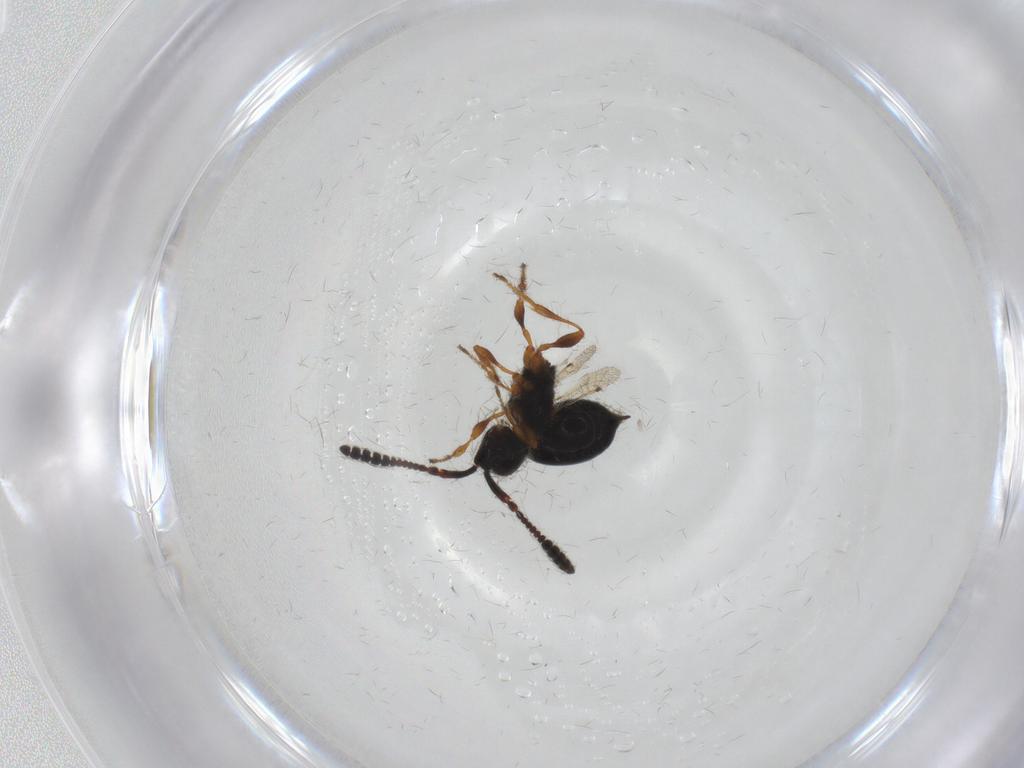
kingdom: Animalia
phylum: Arthropoda
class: Insecta
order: Hymenoptera
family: Diapriidae
